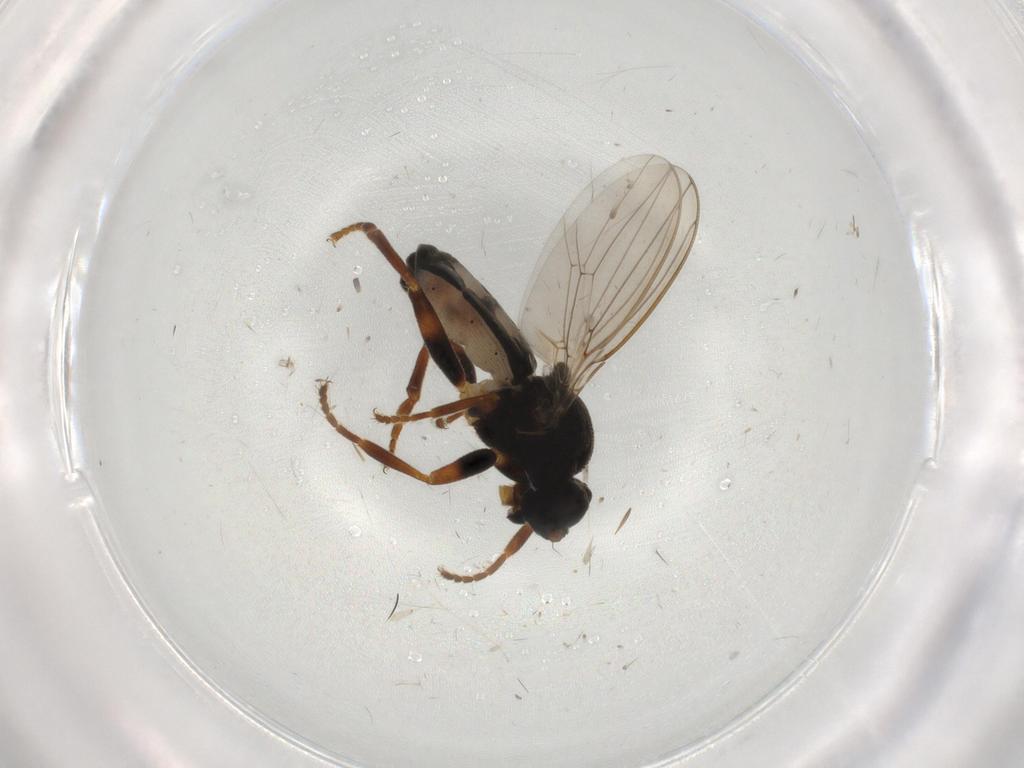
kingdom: Animalia
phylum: Arthropoda
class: Insecta
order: Diptera
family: Sphaeroceridae
